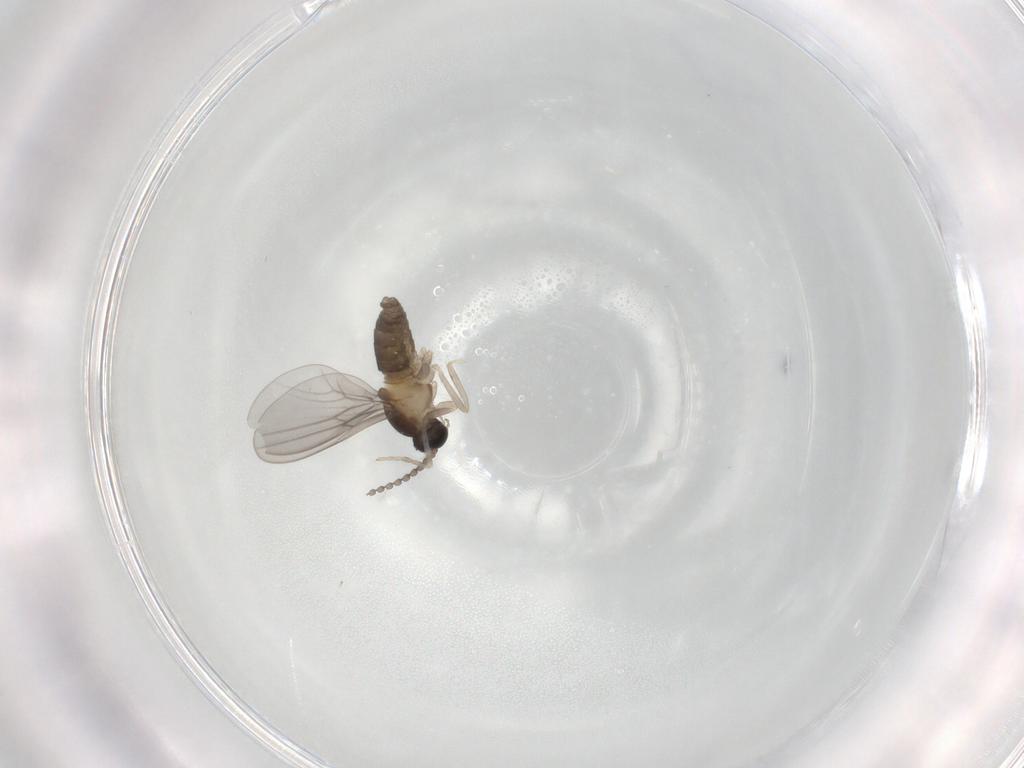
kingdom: Animalia
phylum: Arthropoda
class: Insecta
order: Diptera
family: Cecidomyiidae
